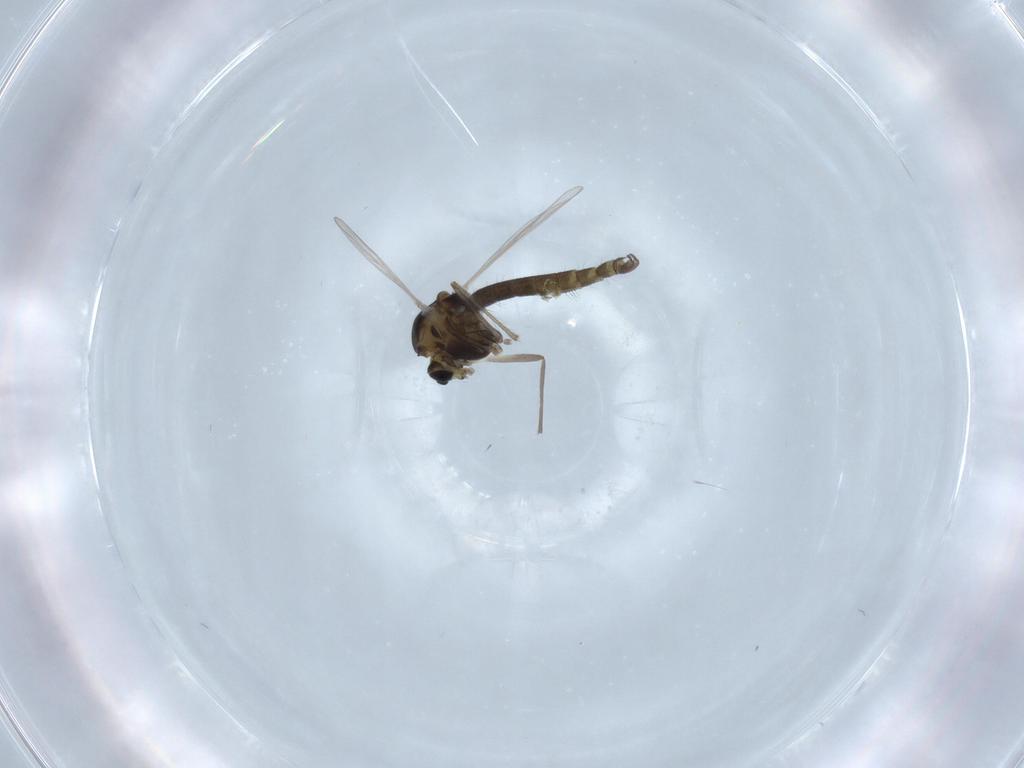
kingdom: Animalia
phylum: Arthropoda
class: Insecta
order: Diptera
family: Chironomidae
